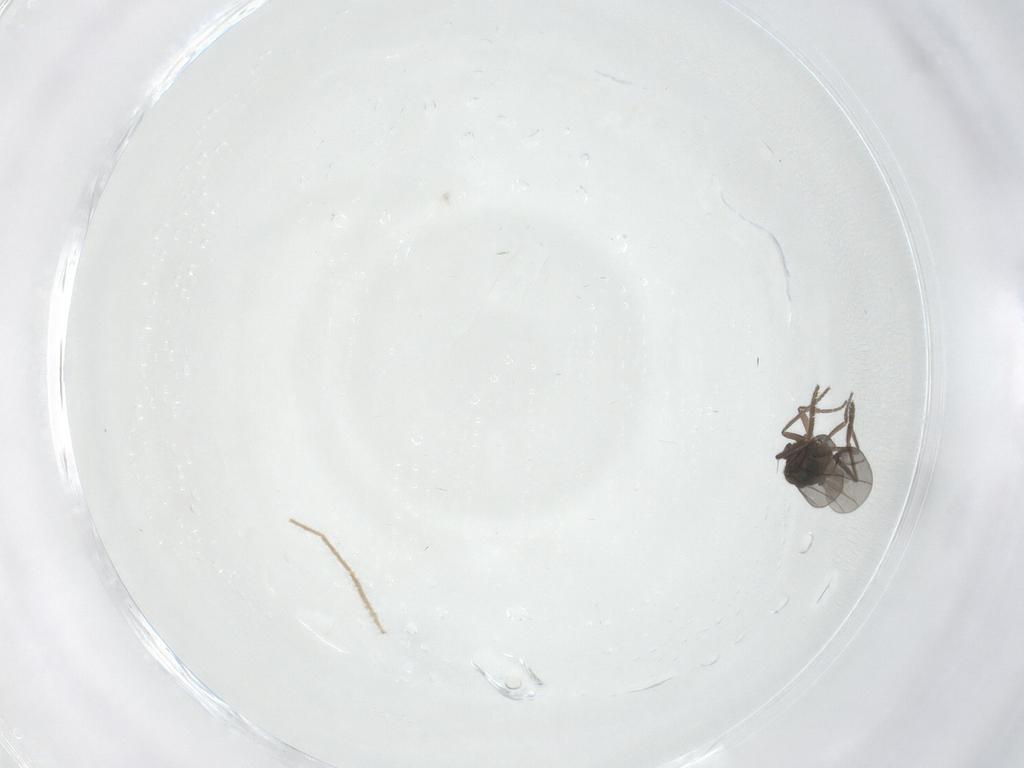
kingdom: Animalia
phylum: Arthropoda
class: Insecta
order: Diptera
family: Phoridae
